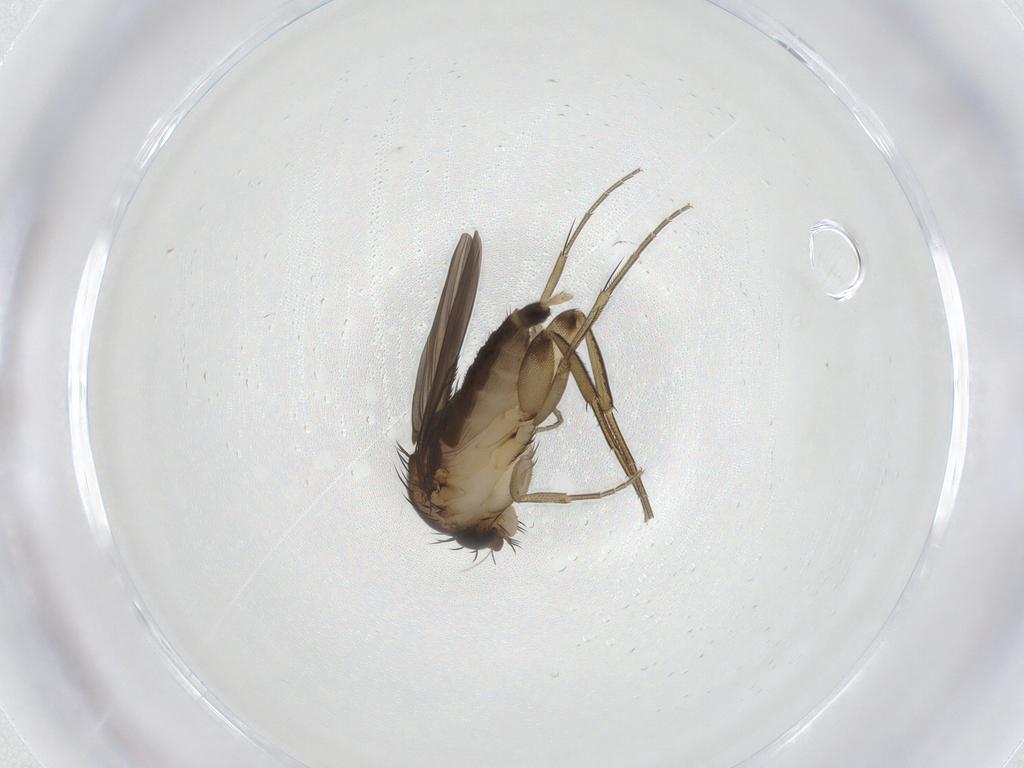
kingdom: Animalia
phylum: Arthropoda
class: Insecta
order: Diptera
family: Phoridae
